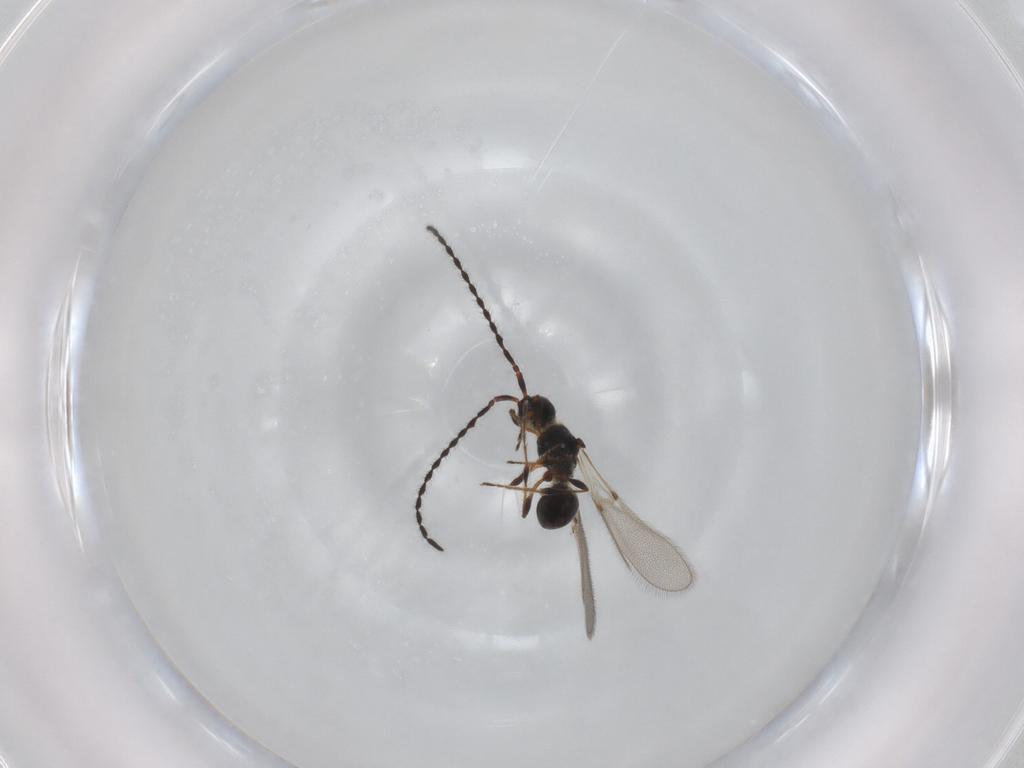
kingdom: Animalia
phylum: Arthropoda
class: Insecta
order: Hymenoptera
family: Diapriidae
